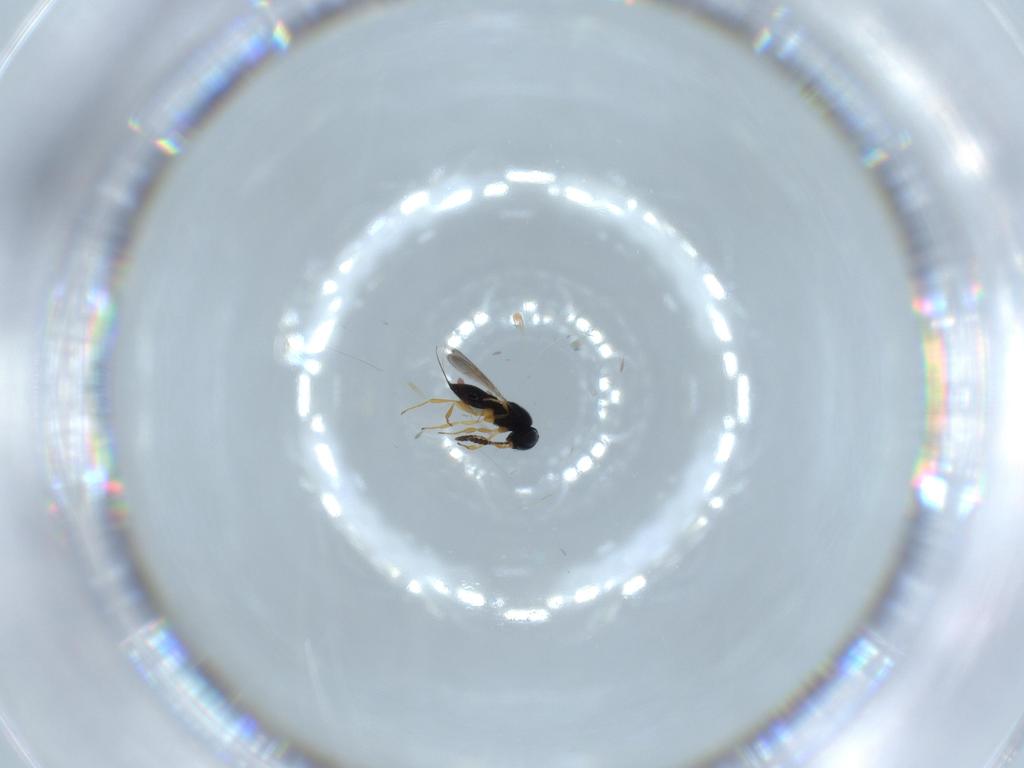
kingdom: Animalia
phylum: Arthropoda
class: Insecta
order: Hymenoptera
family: Scelionidae
